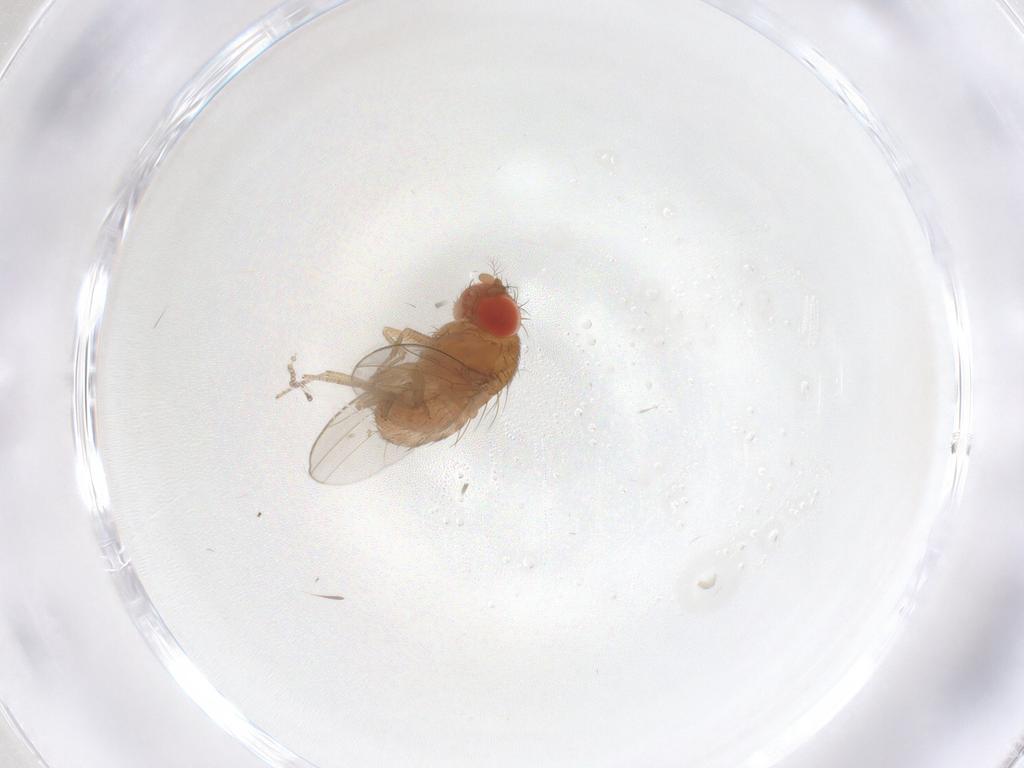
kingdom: Animalia
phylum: Arthropoda
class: Insecta
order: Diptera
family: Drosophilidae
